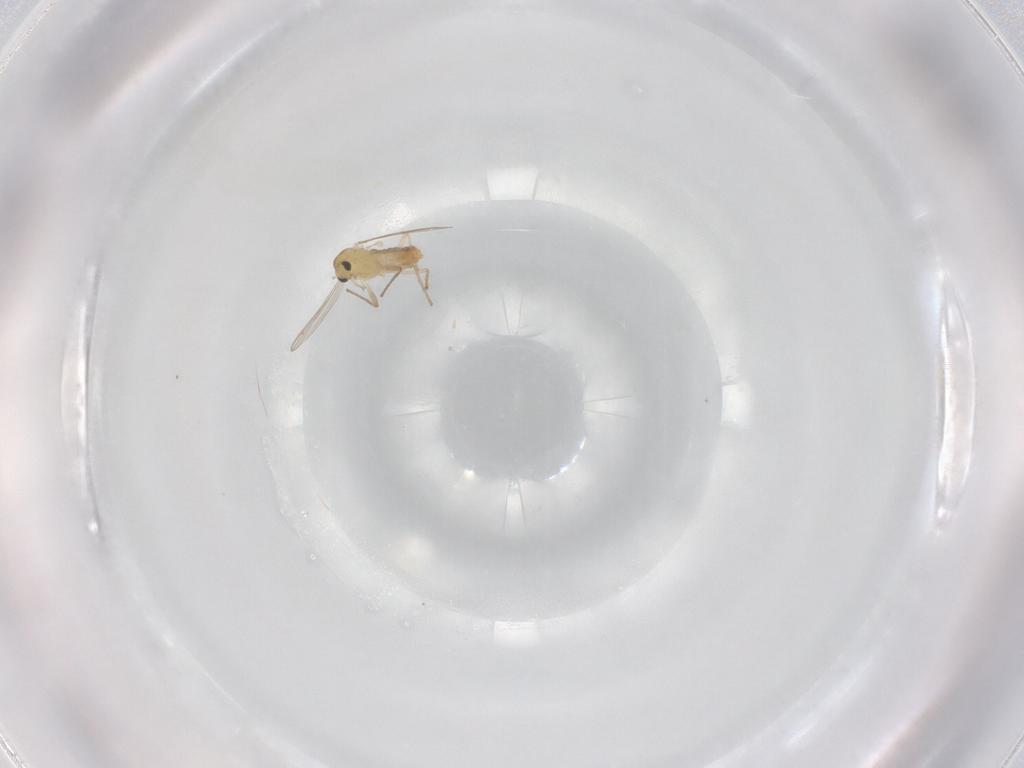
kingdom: Animalia
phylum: Arthropoda
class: Insecta
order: Diptera
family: Chironomidae
